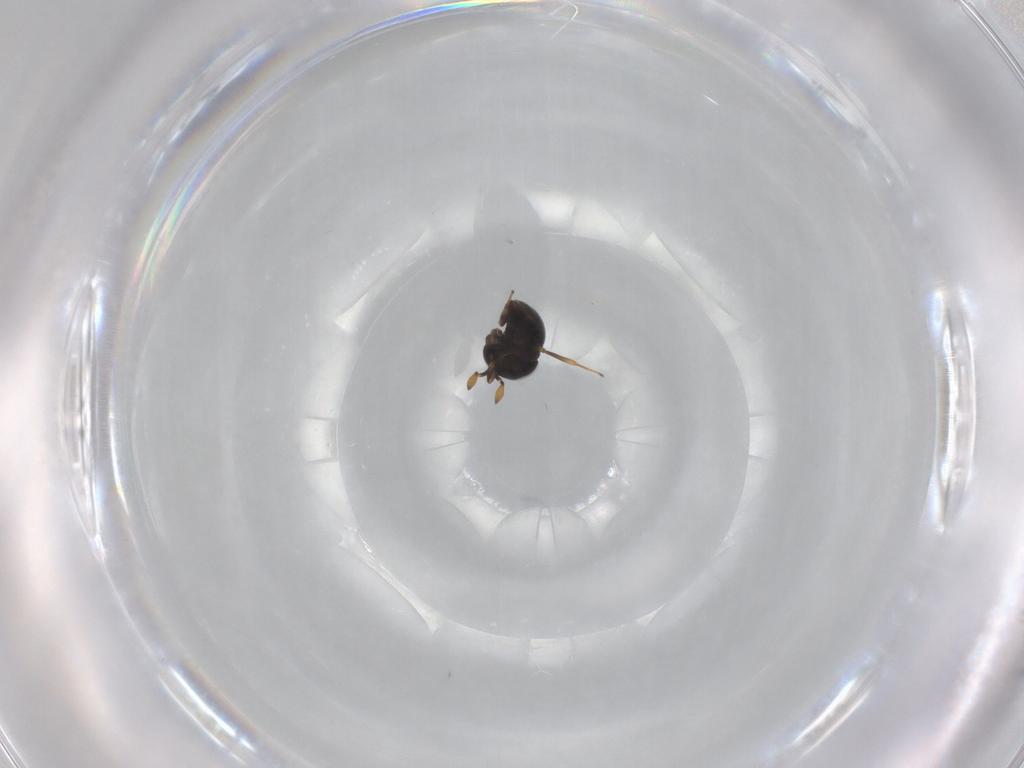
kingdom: Animalia
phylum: Arthropoda
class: Insecta
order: Hymenoptera
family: Scelionidae
